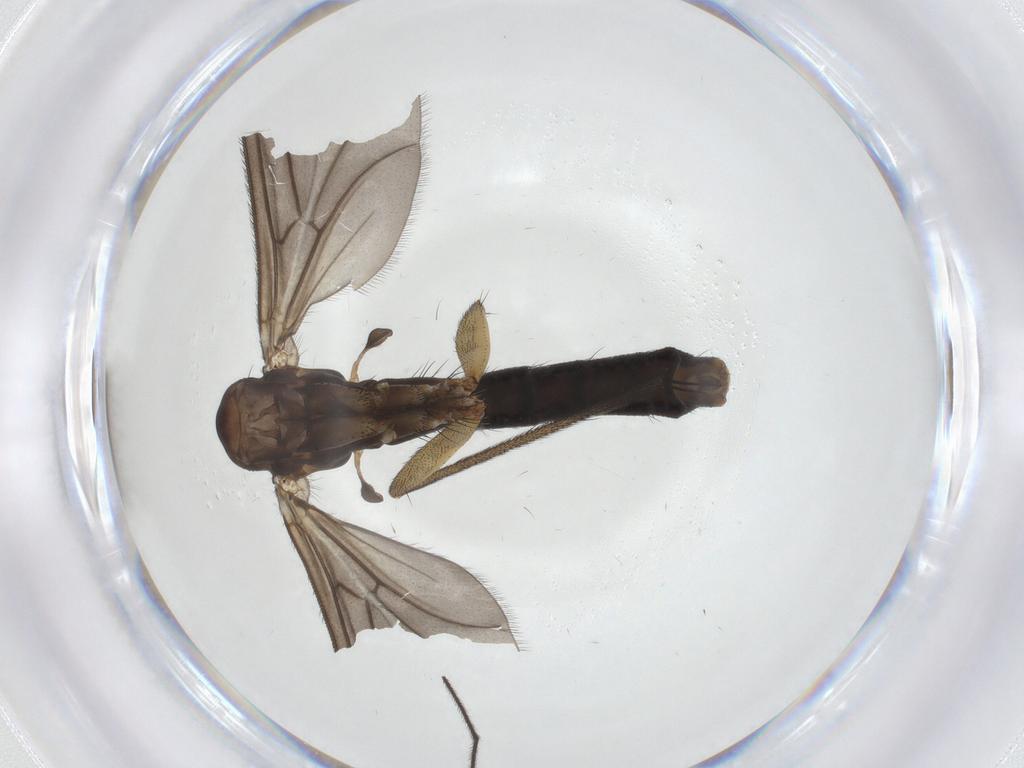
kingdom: Animalia
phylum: Arthropoda
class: Insecta
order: Diptera
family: Ditomyiidae
